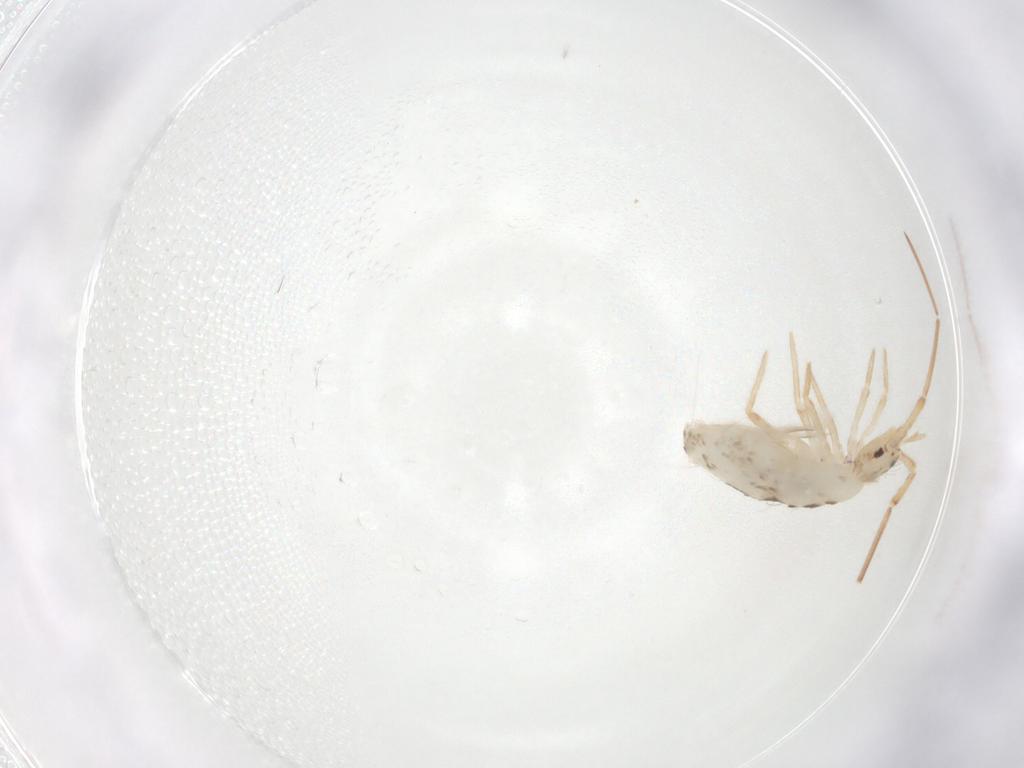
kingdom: Animalia
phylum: Arthropoda
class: Collembola
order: Entomobryomorpha
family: Entomobryidae
